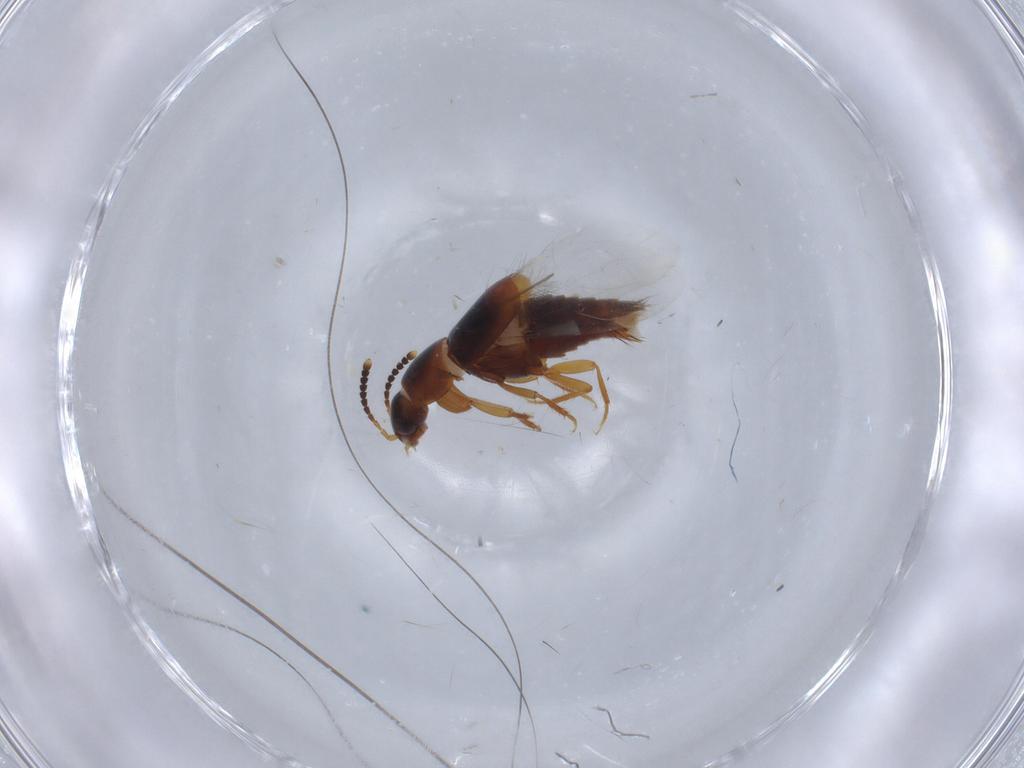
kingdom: Animalia
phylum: Arthropoda
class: Insecta
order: Coleoptera
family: Staphylinidae
